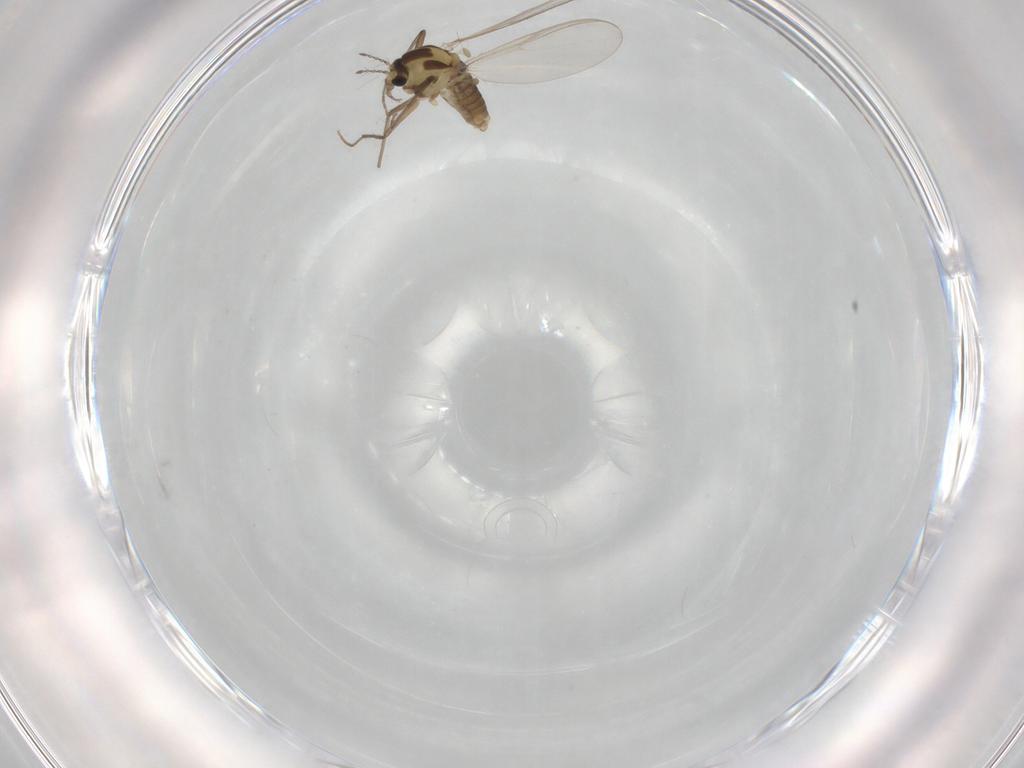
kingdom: Animalia
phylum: Arthropoda
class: Insecta
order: Diptera
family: Chironomidae
